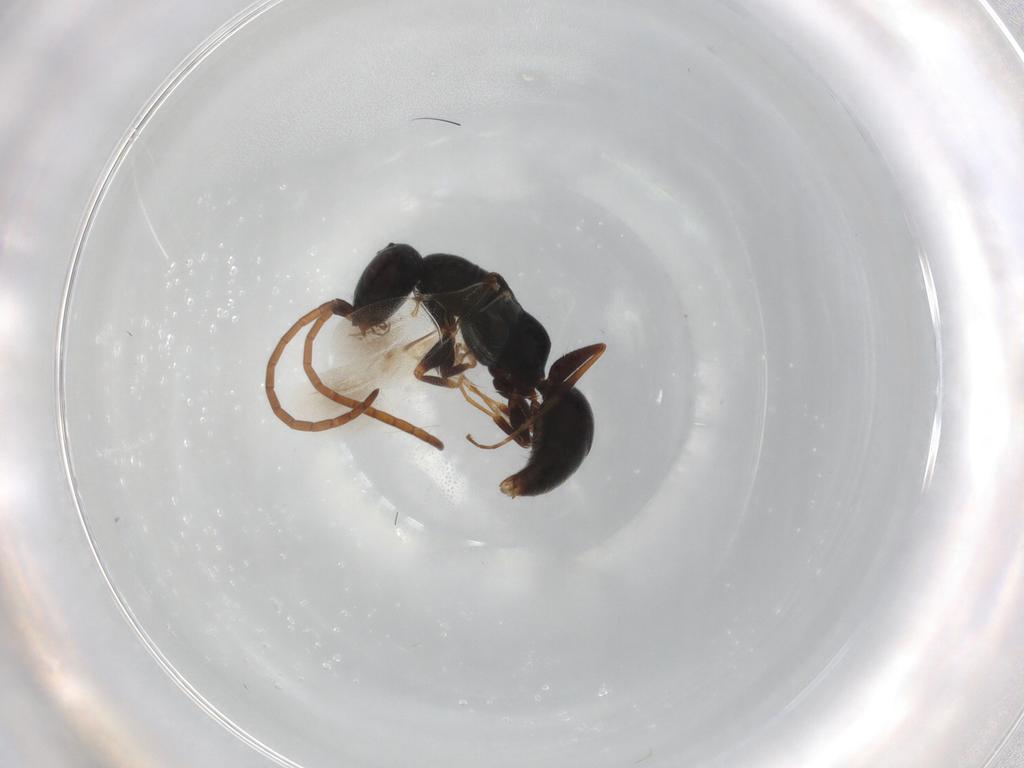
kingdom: Animalia
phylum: Arthropoda
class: Insecta
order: Hymenoptera
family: Bethylidae
